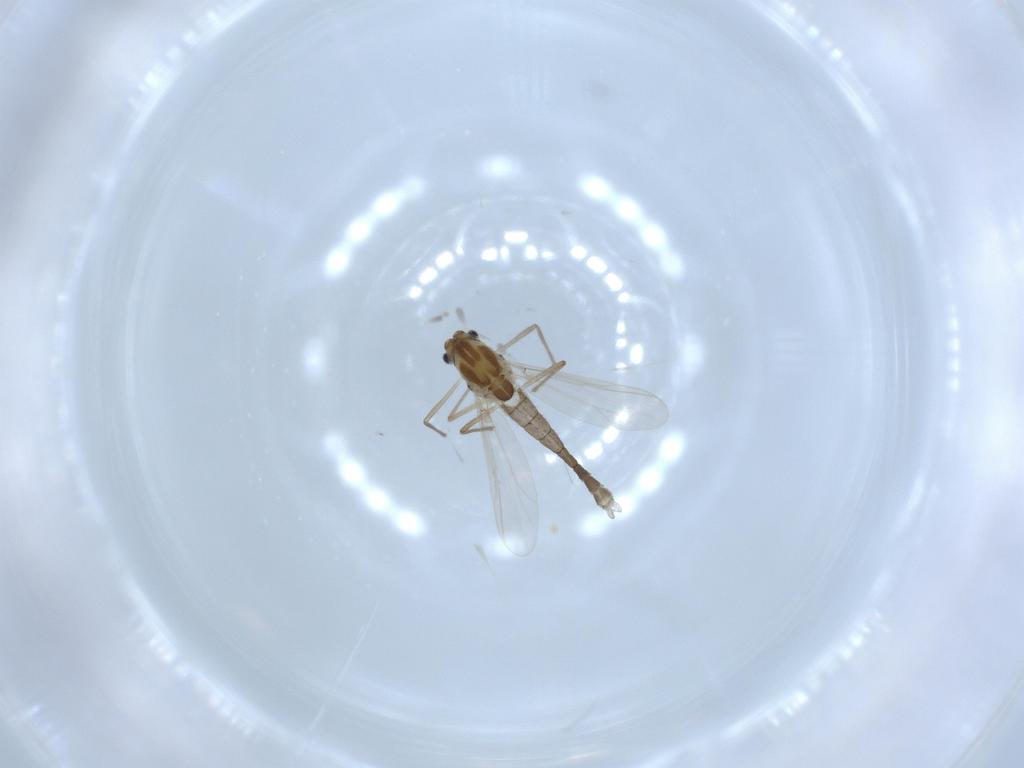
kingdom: Animalia
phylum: Arthropoda
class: Insecta
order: Diptera
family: Chironomidae
